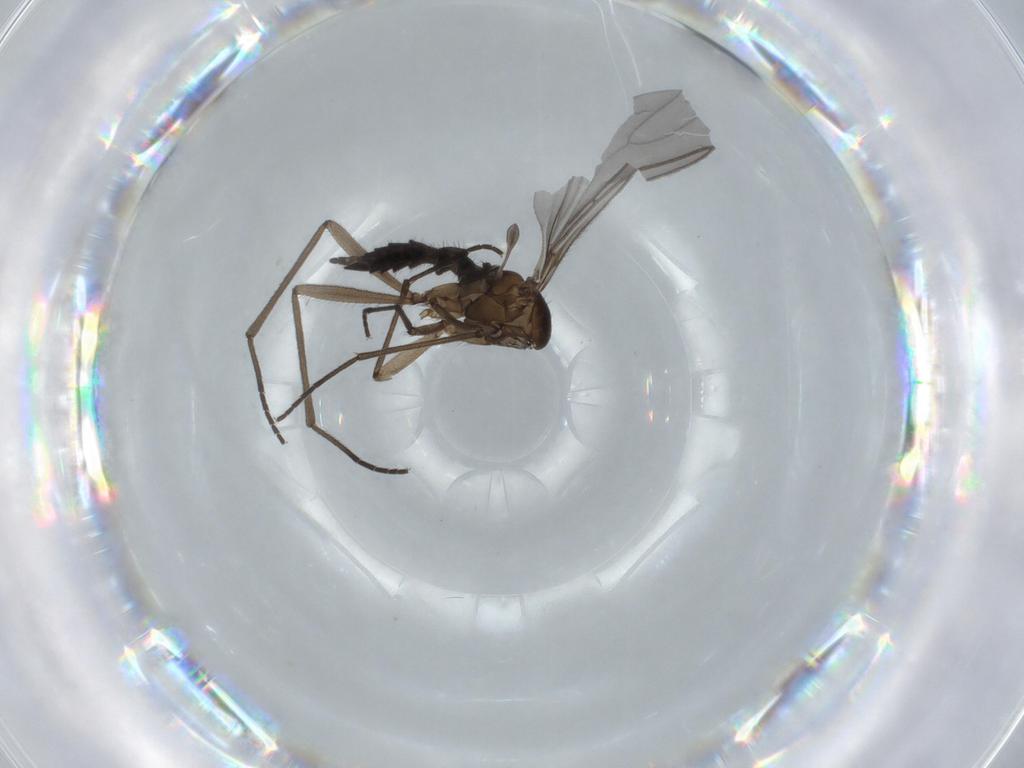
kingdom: Animalia
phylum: Arthropoda
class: Insecta
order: Diptera
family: Sciaridae
